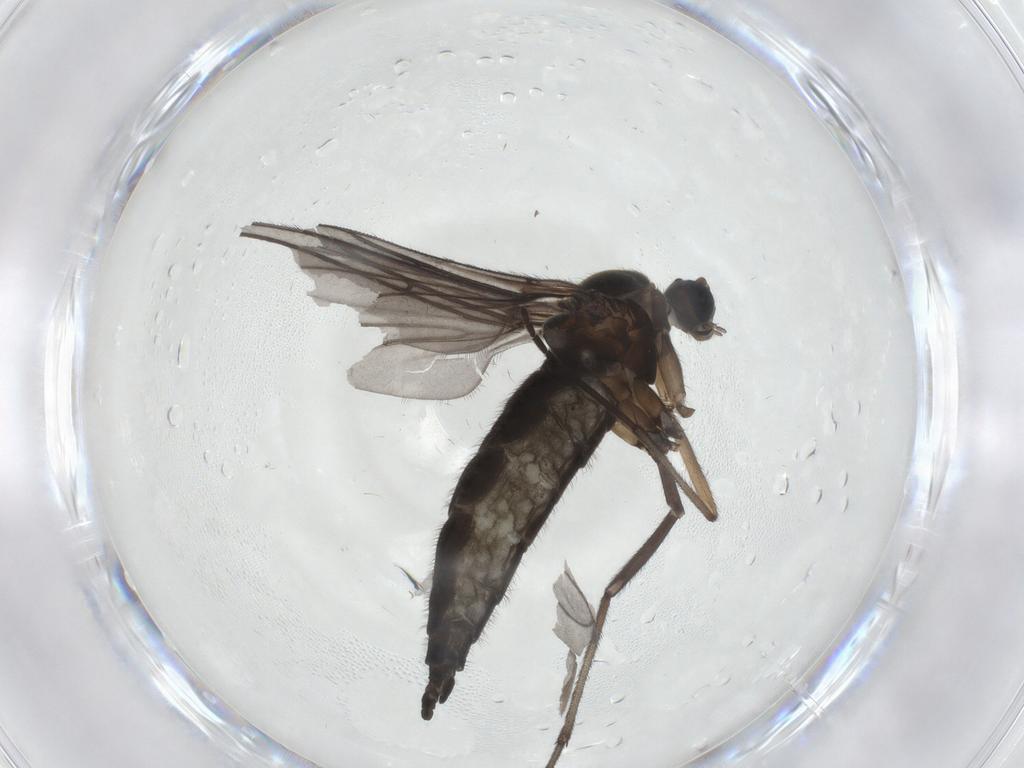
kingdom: Animalia
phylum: Arthropoda
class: Insecta
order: Diptera
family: Sciaridae
